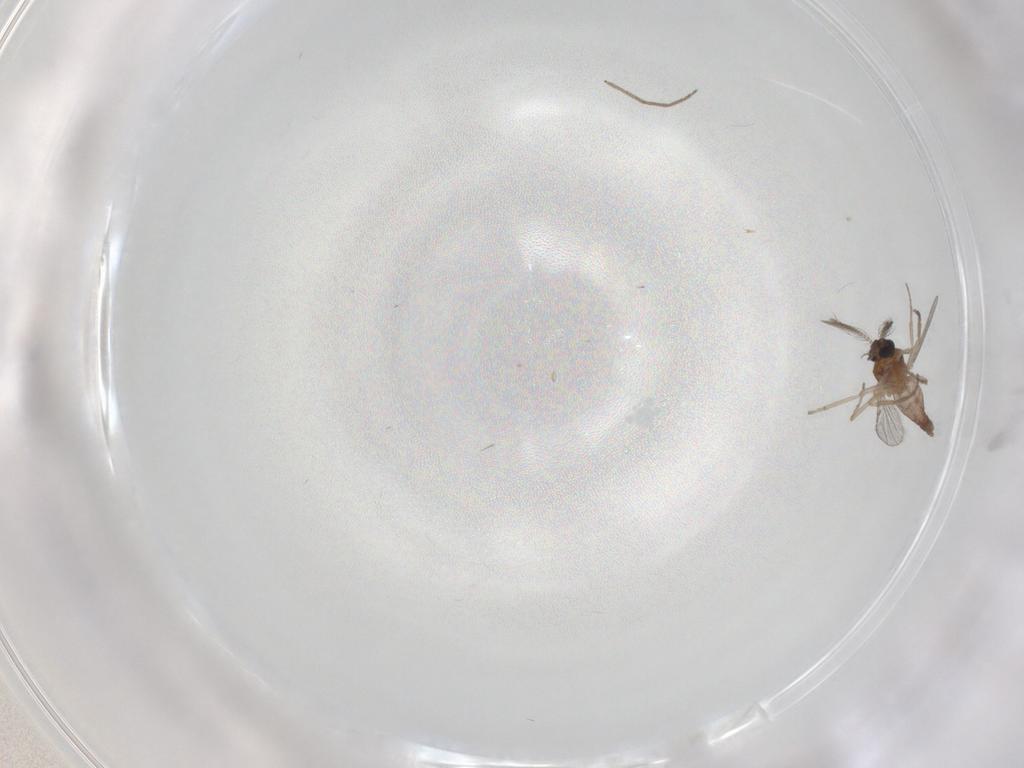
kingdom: Animalia
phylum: Arthropoda
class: Insecta
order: Diptera
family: Ceratopogonidae
